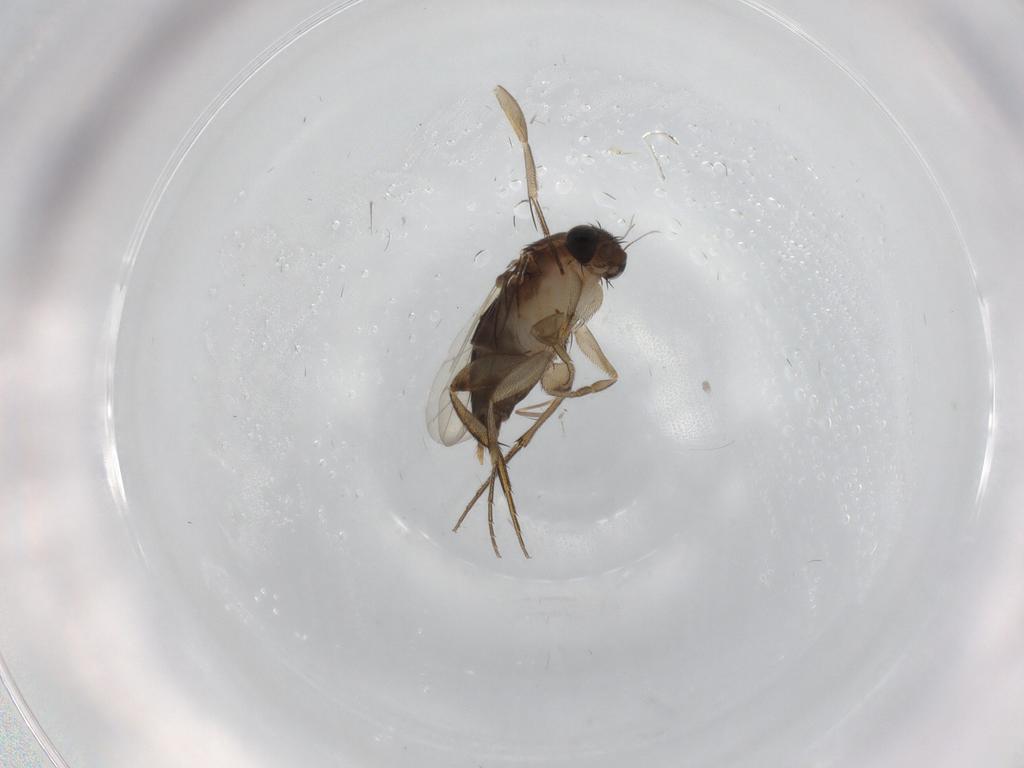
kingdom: Animalia
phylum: Arthropoda
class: Insecta
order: Diptera
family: Phoridae
